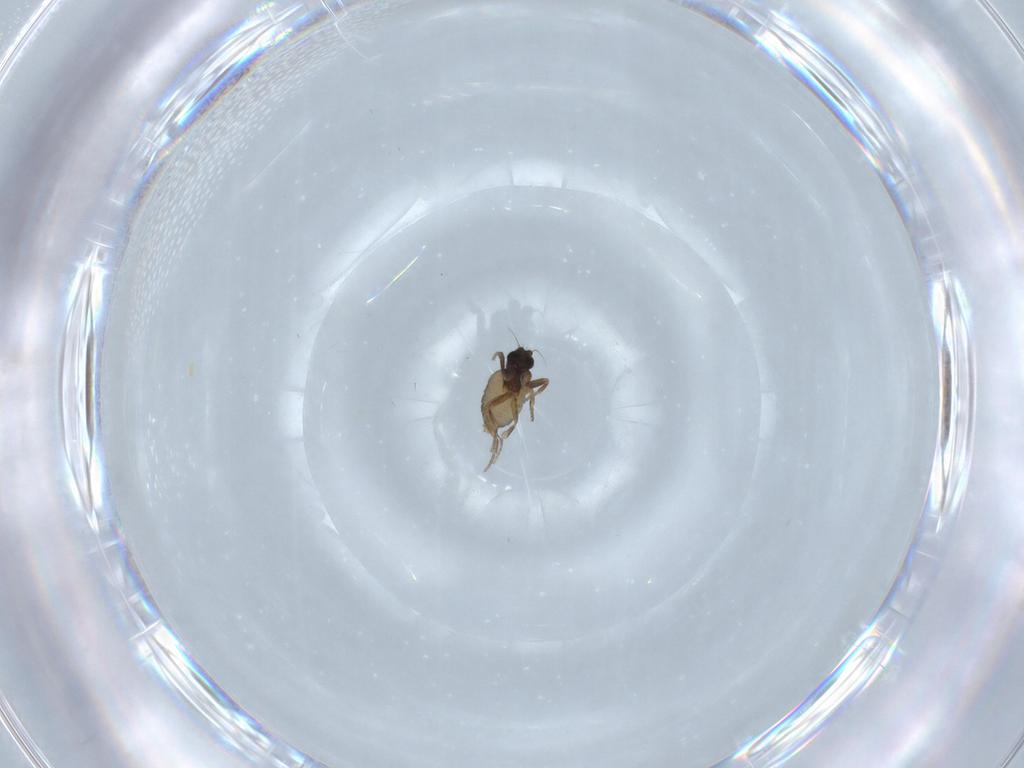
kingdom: Animalia
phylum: Arthropoda
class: Insecta
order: Diptera
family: Phoridae
